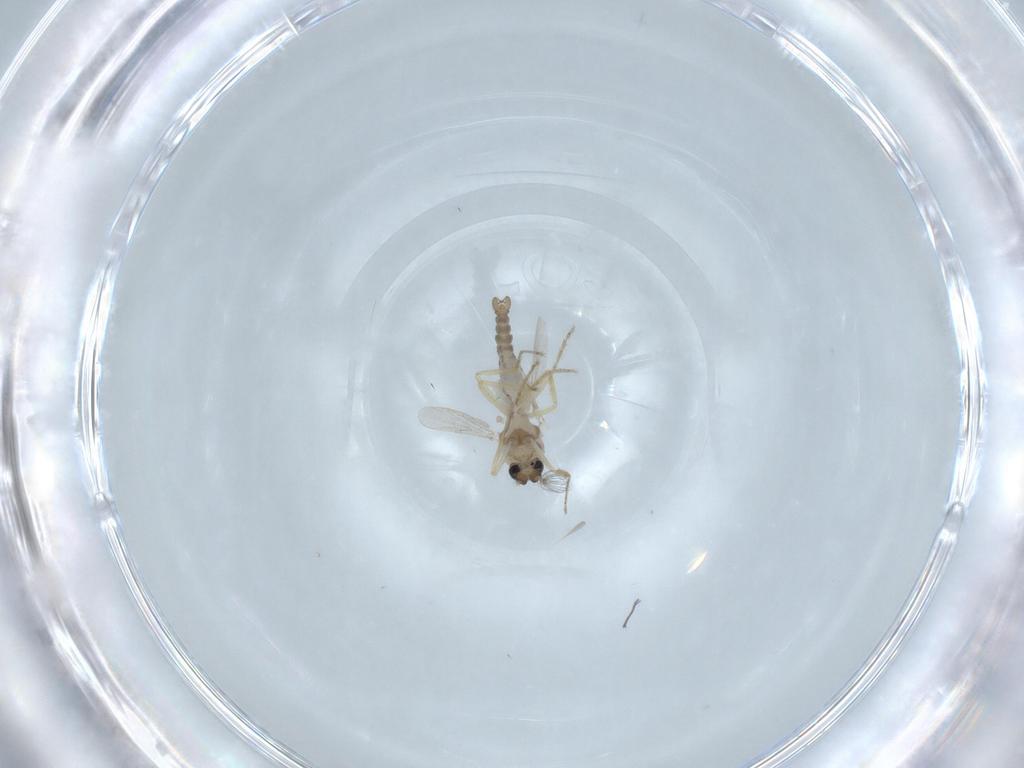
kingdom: Animalia
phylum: Arthropoda
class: Insecta
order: Diptera
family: Ceratopogonidae
